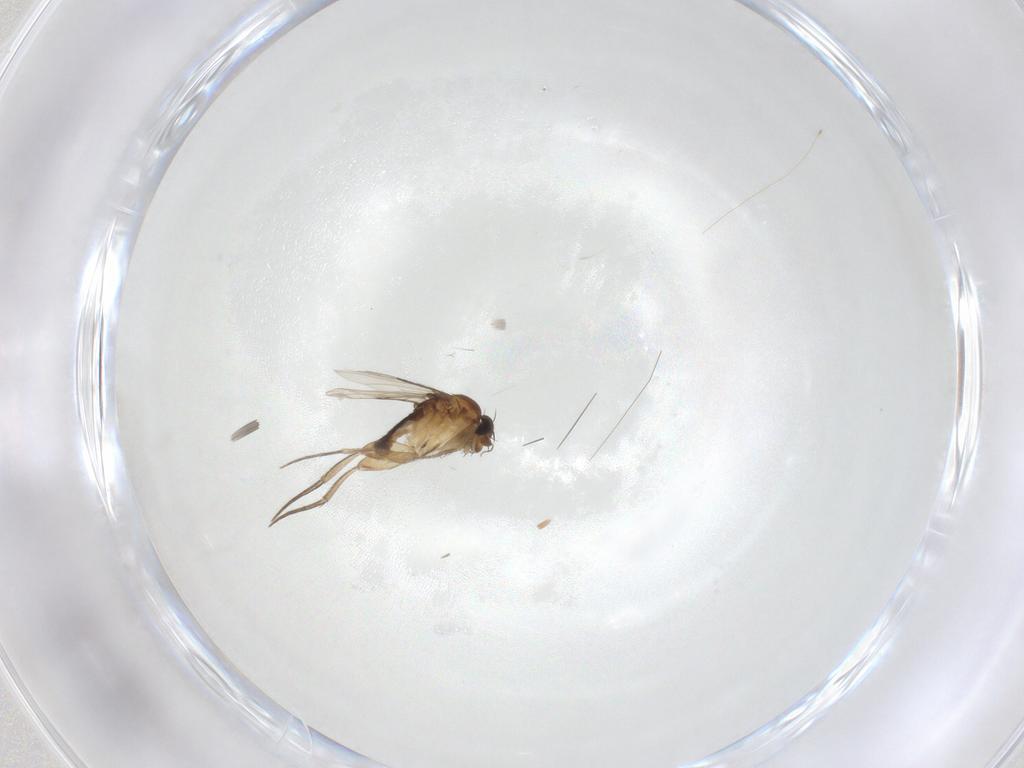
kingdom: Animalia
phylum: Arthropoda
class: Insecta
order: Diptera
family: Phoridae
